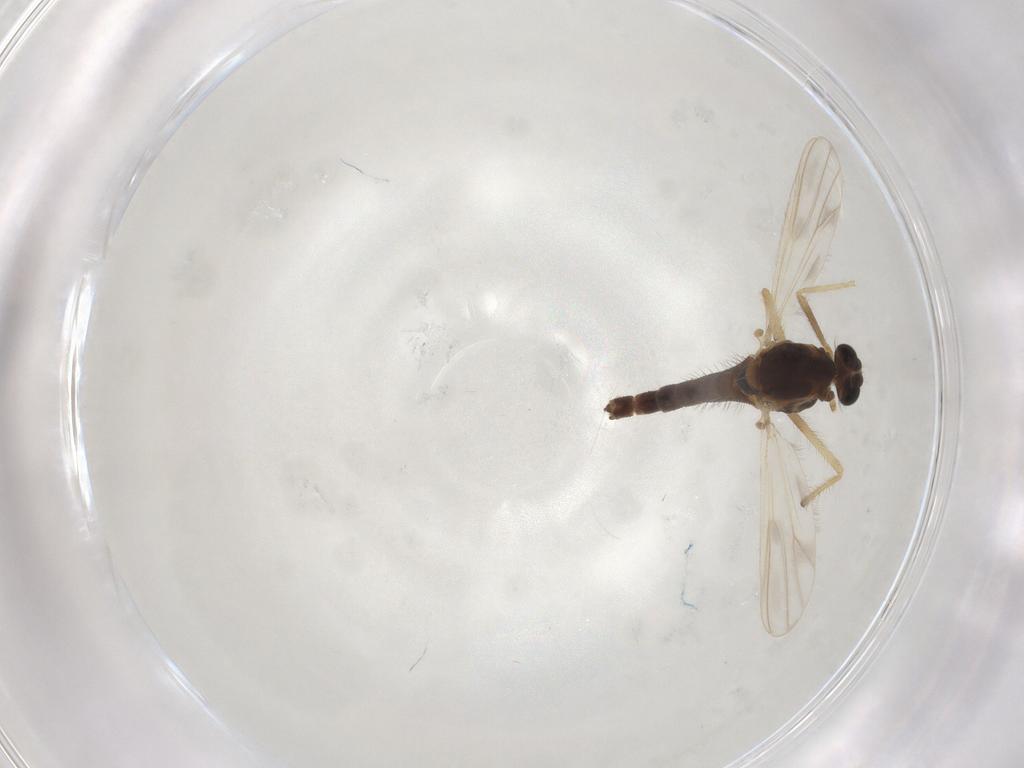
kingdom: Animalia
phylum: Arthropoda
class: Insecta
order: Diptera
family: Chironomidae
